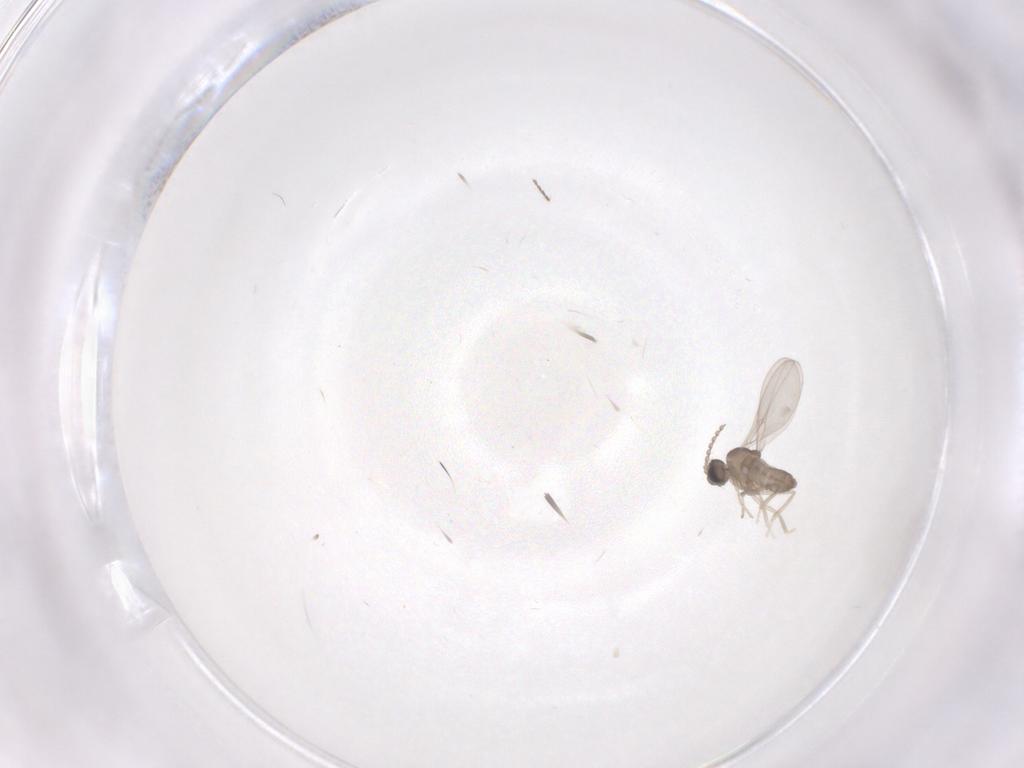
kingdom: Animalia
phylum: Arthropoda
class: Insecta
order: Diptera
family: Cecidomyiidae
